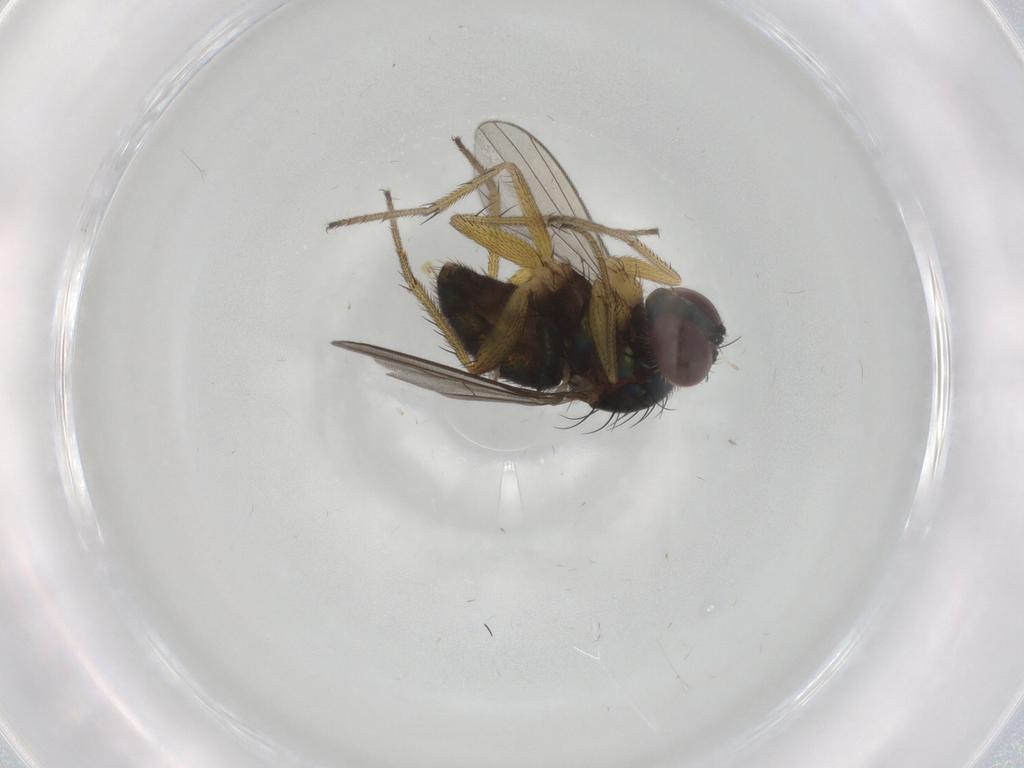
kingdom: Animalia
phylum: Arthropoda
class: Insecta
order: Diptera
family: Dolichopodidae
